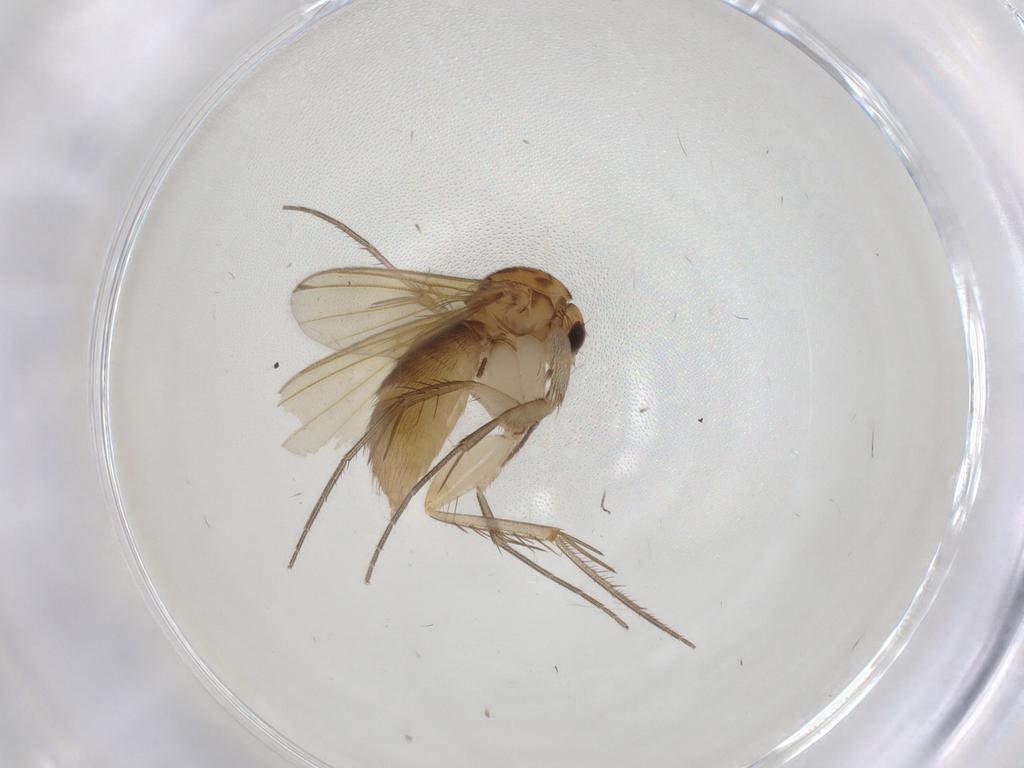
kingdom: Animalia
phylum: Arthropoda
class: Insecta
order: Diptera
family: Mycetophilidae
